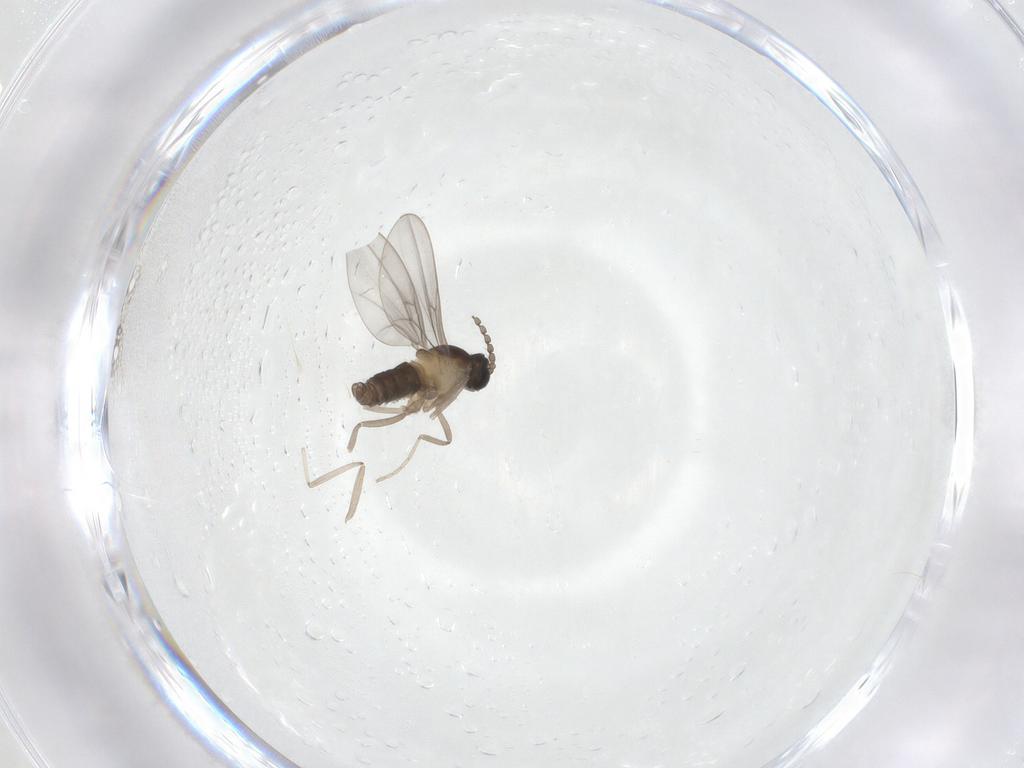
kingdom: Animalia
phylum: Arthropoda
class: Insecta
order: Diptera
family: Cecidomyiidae
